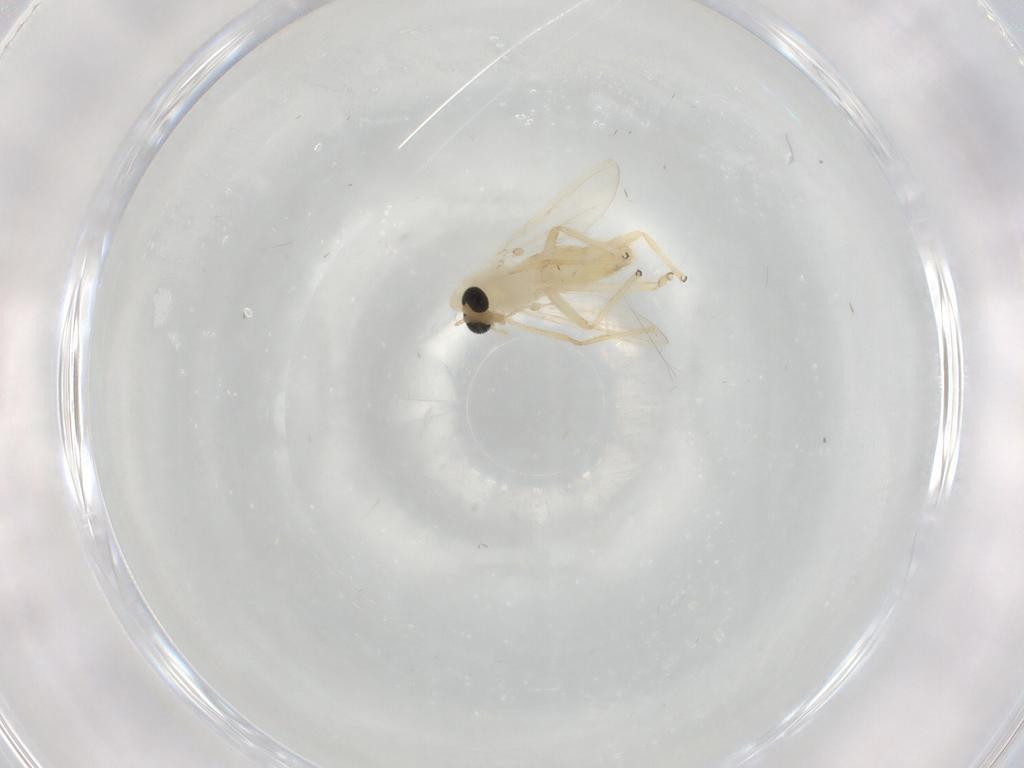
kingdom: Animalia
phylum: Arthropoda
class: Insecta
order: Diptera
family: Chironomidae
